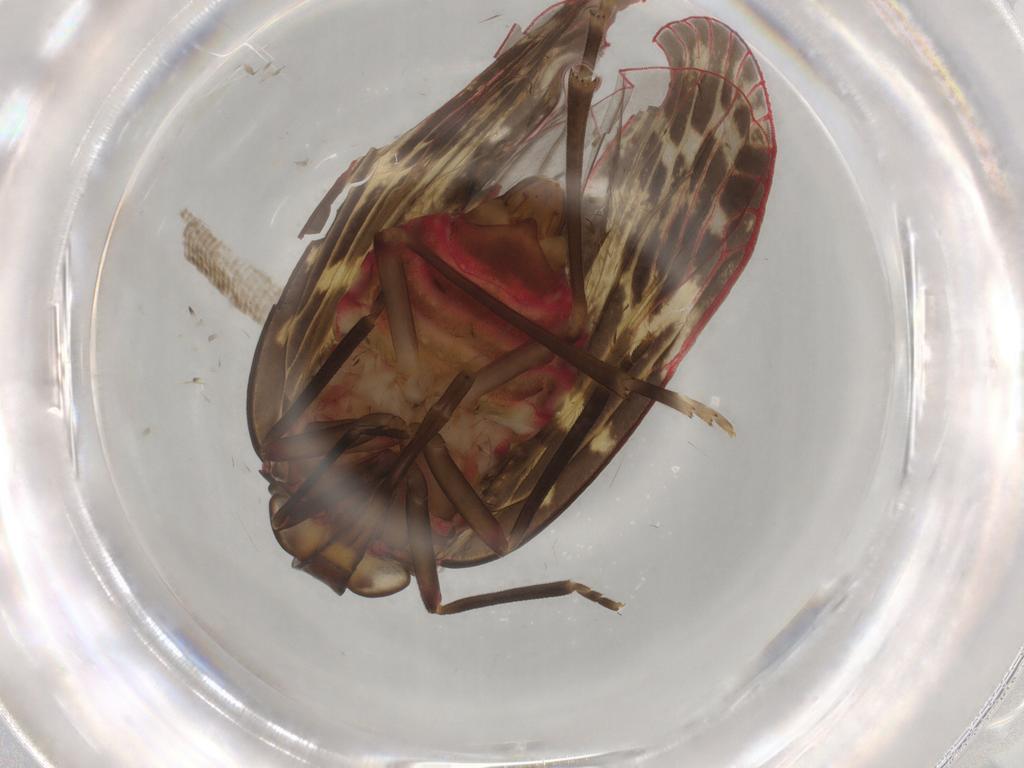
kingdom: Animalia
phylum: Arthropoda
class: Insecta
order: Hemiptera
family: Achilidae
